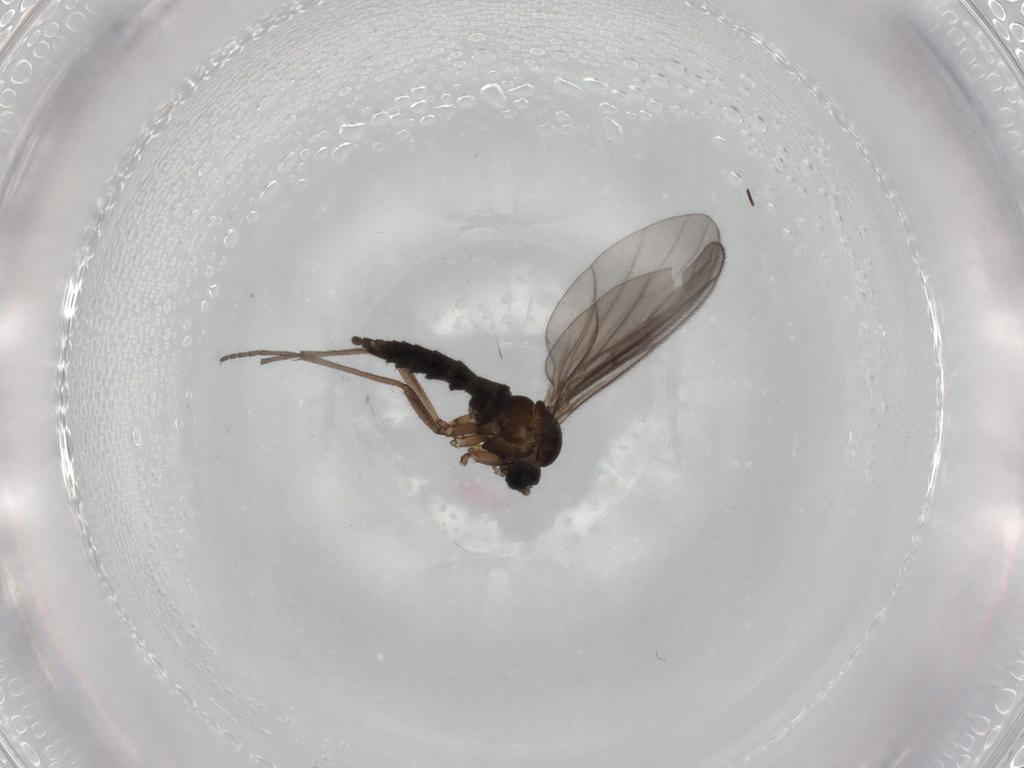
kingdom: Animalia
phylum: Arthropoda
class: Insecta
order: Diptera
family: Sciaridae
